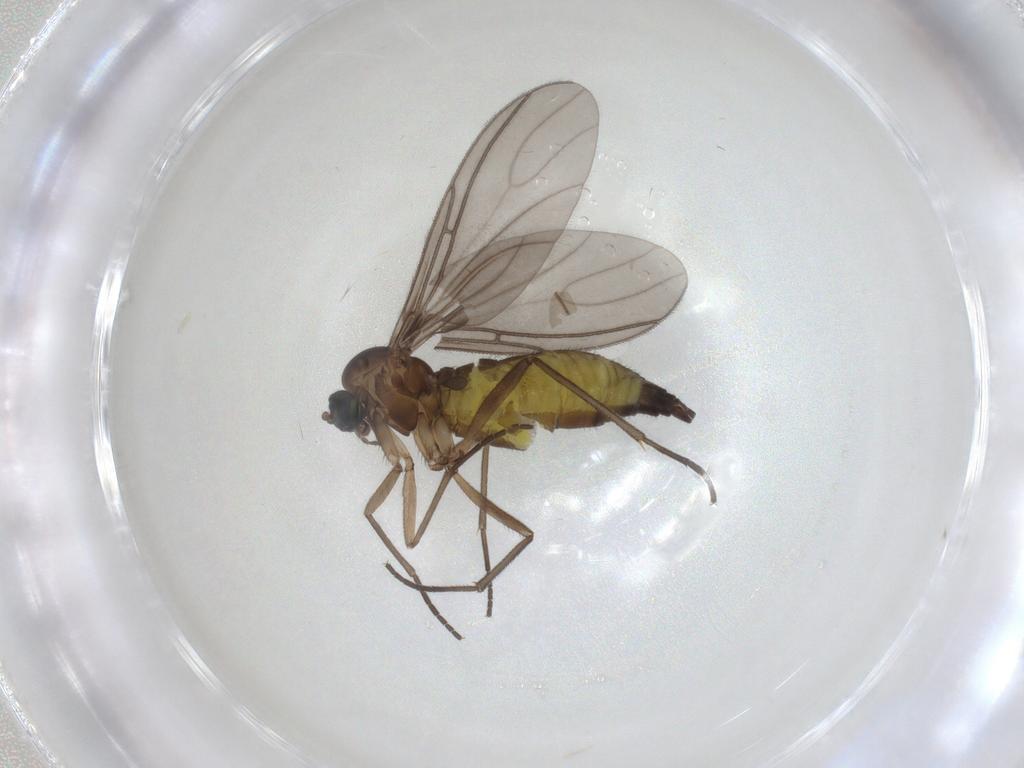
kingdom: Animalia
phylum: Arthropoda
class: Insecta
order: Diptera
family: Sciaridae
